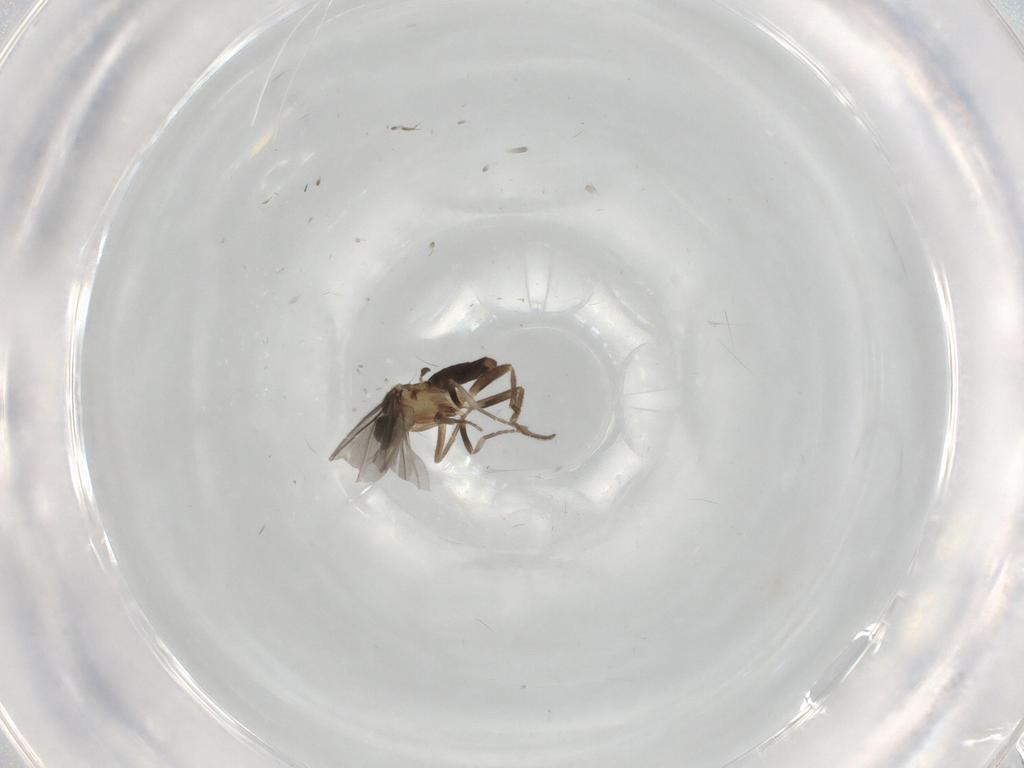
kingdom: Animalia
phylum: Arthropoda
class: Insecta
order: Diptera
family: Phoridae
